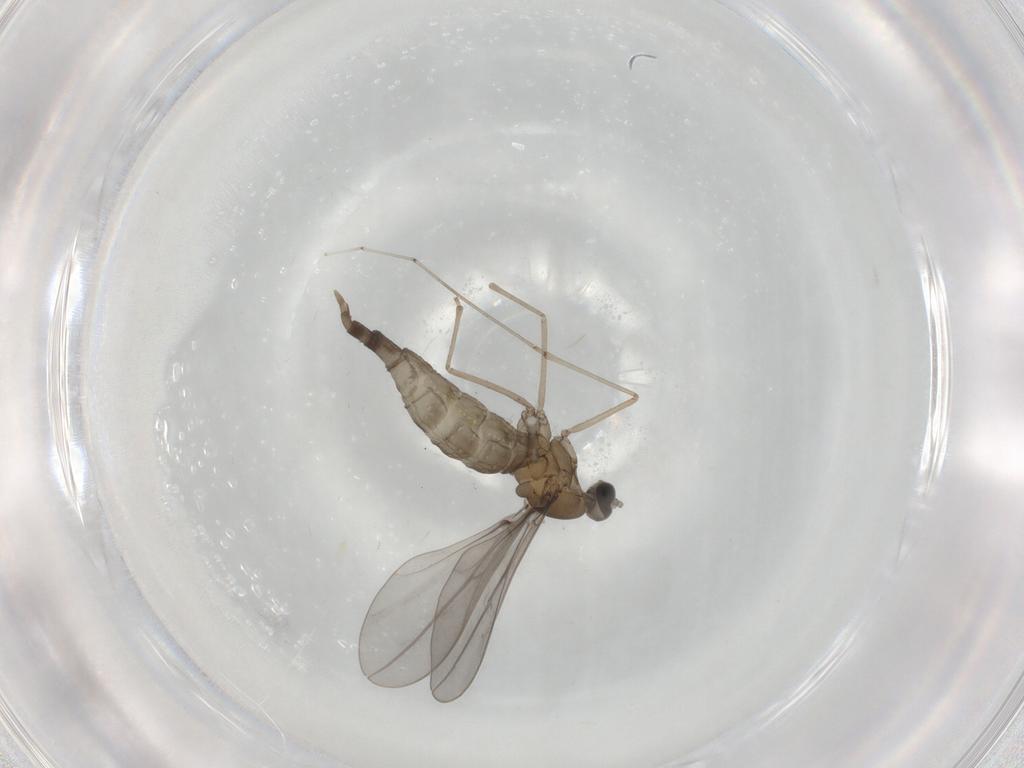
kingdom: Animalia
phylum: Arthropoda
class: Insecta
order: Diptera
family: Cecidomyiidae
